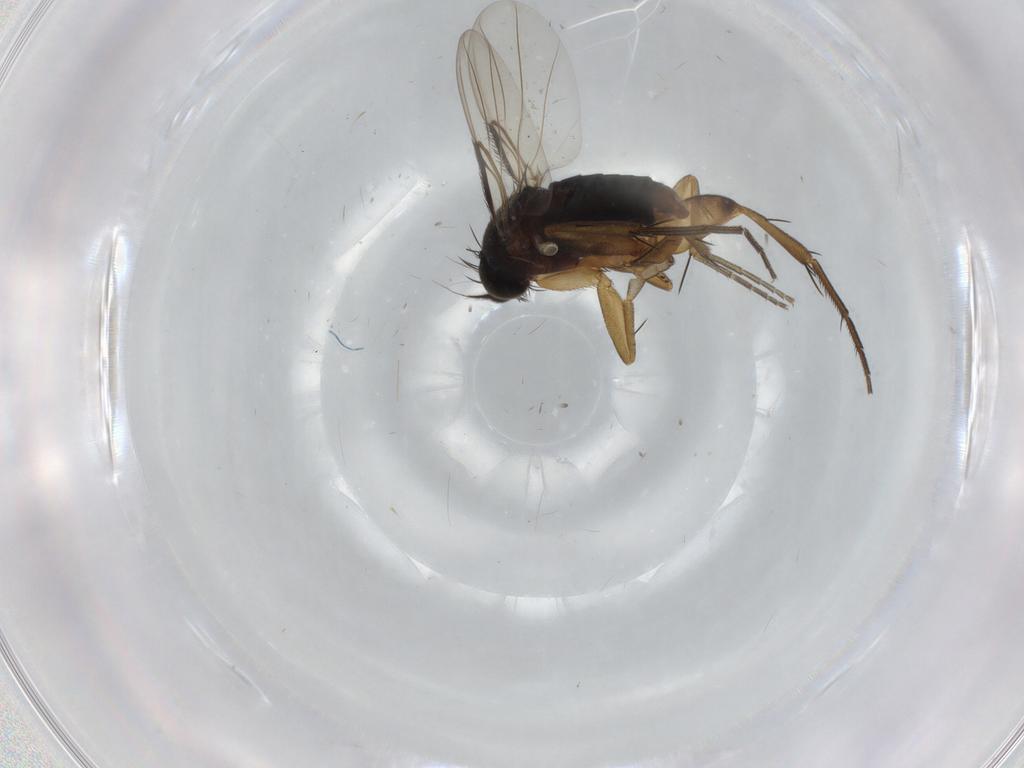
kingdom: Animalia
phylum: Arthropoda
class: Insecta
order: Diptera
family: Phoridae
